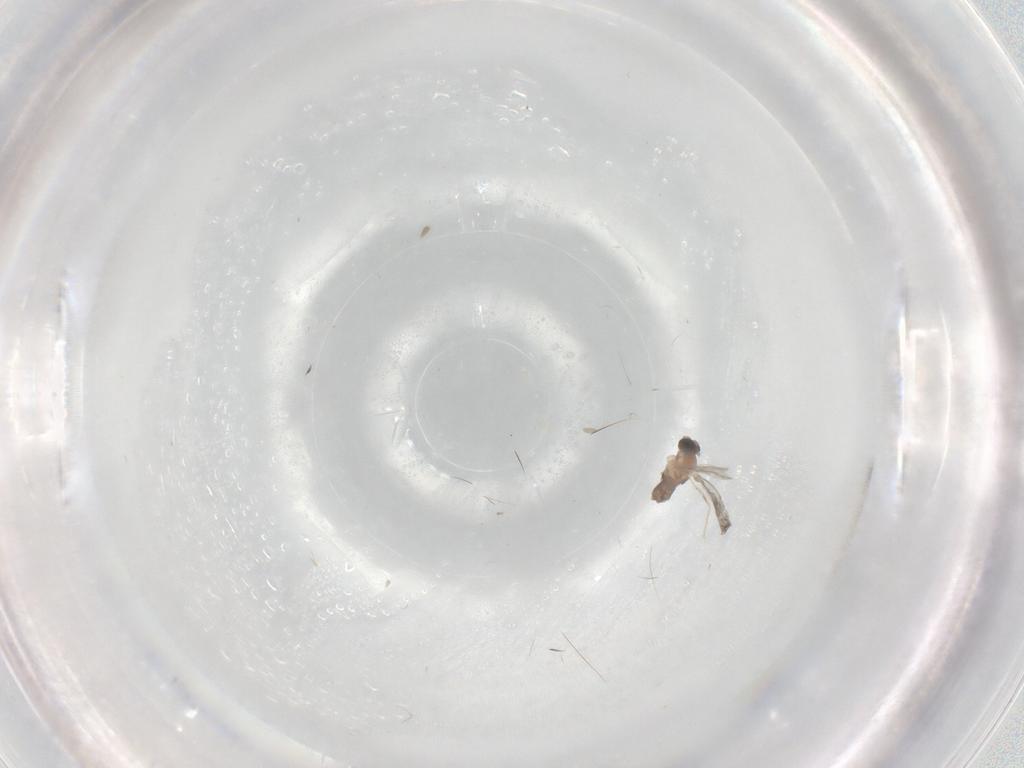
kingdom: Animalia
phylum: Arthropoda
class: Insecta
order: Diptera
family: Cecidomyiidae
